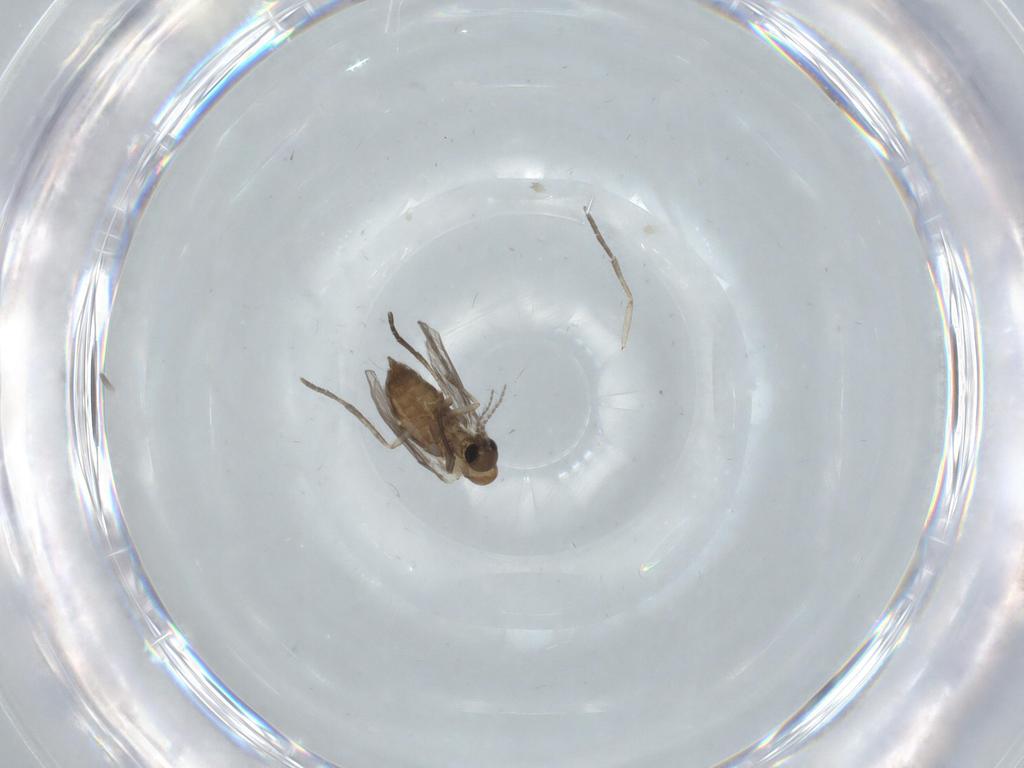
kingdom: Animalia
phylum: Arthropoda
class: Insecta
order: Diptera
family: Psychodidae
